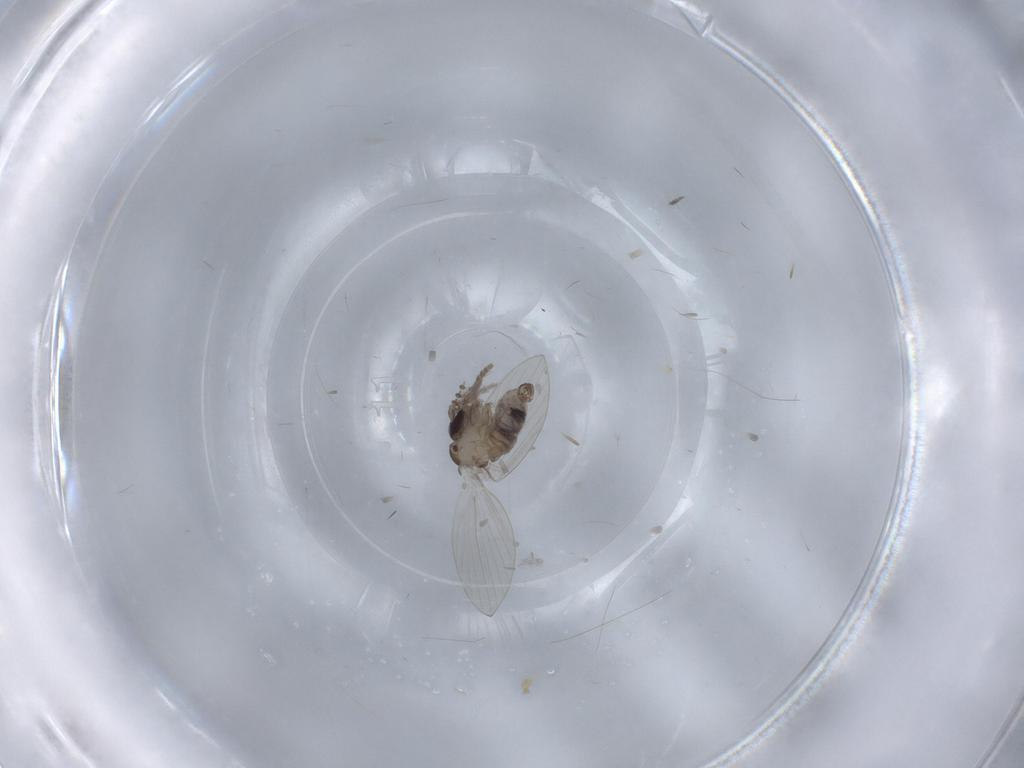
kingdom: Animalia
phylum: Arthropoda
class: Insecta
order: Diptera
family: Psychodidae
